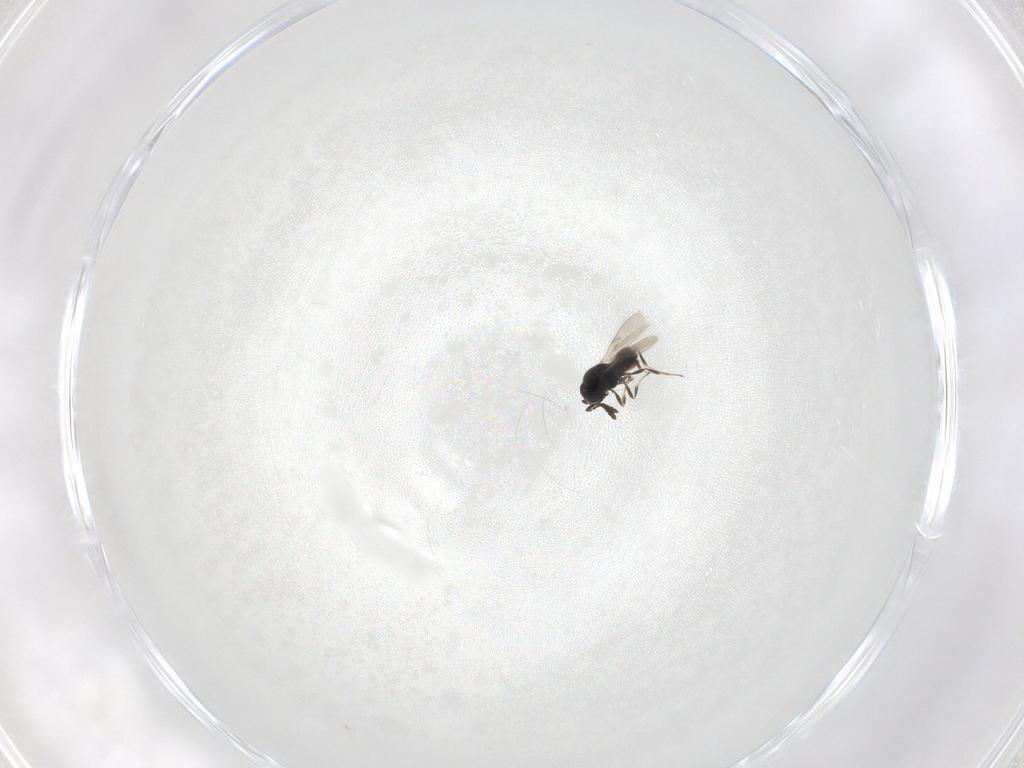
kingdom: Animalia
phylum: Arthropoda
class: Insecta
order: Hymenoptera
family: Scelionidae
